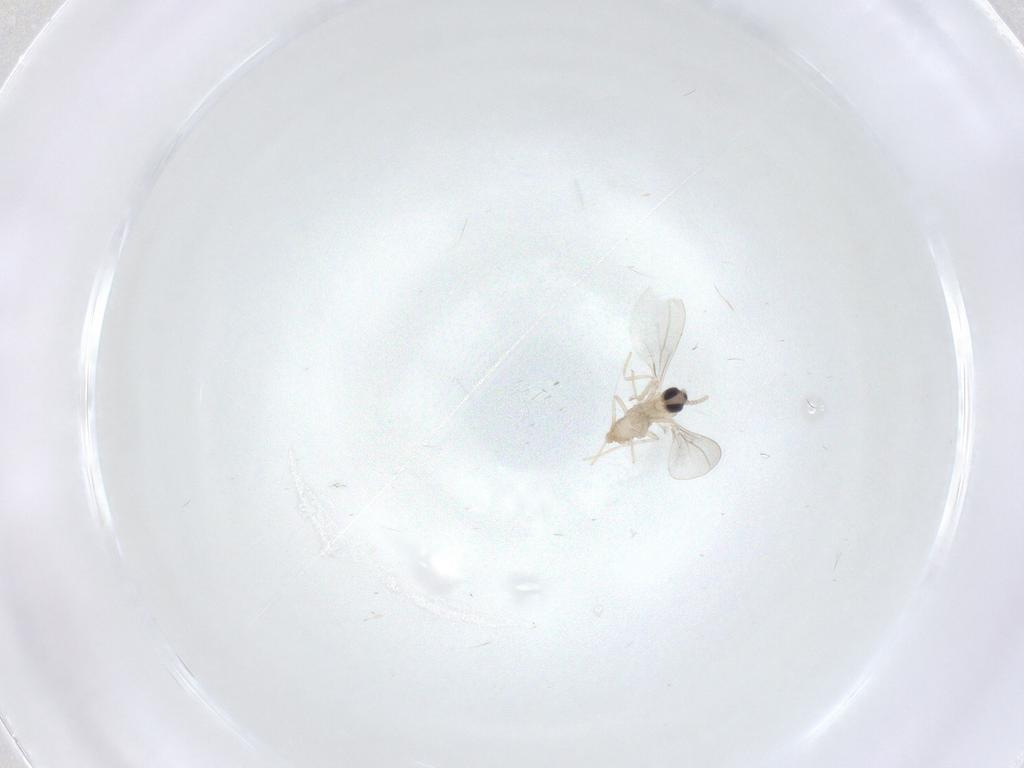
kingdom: Animalia
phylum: Arthropoda
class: Insecta
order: Diptera
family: Cecidomyiidae
